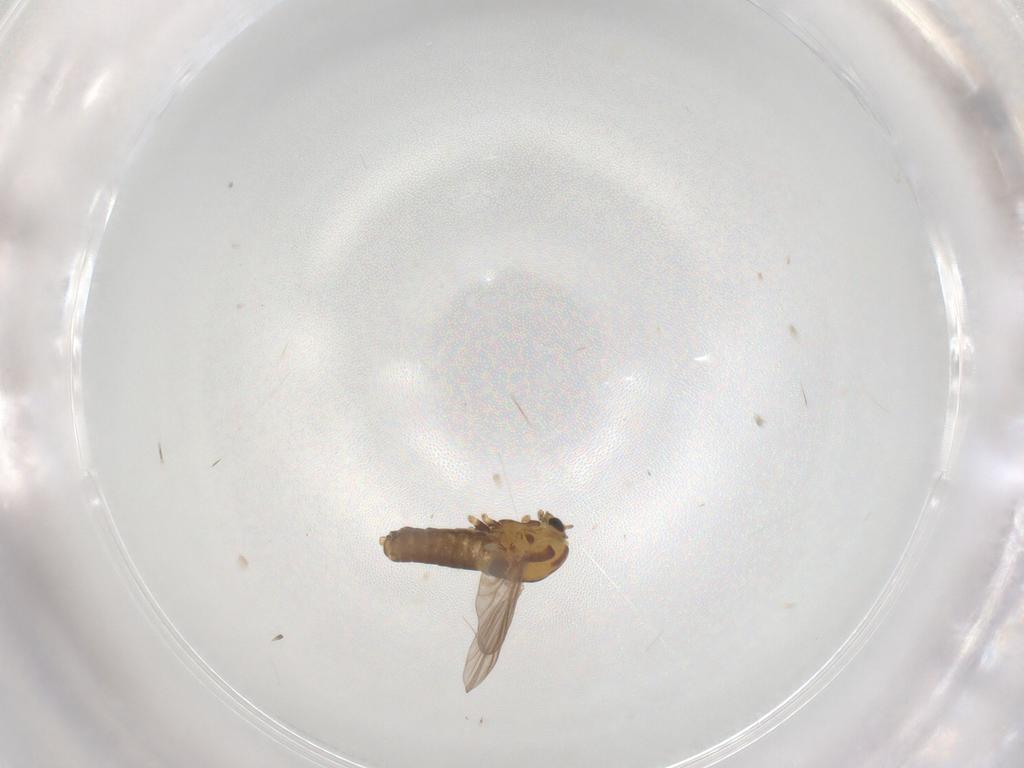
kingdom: Animalia
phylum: Arthropoda
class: Insecta
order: Diptera
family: Chironomidae
